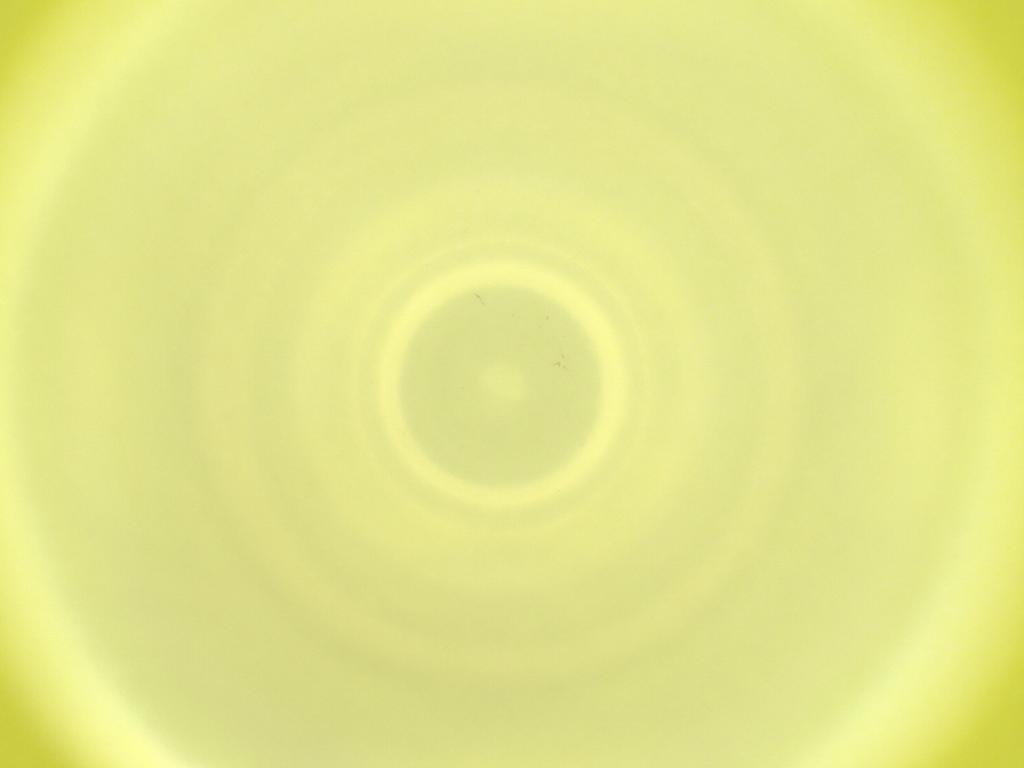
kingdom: Animalia
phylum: Arthropoda
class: Insecta
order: Diptera
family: Cecidomyiidae
